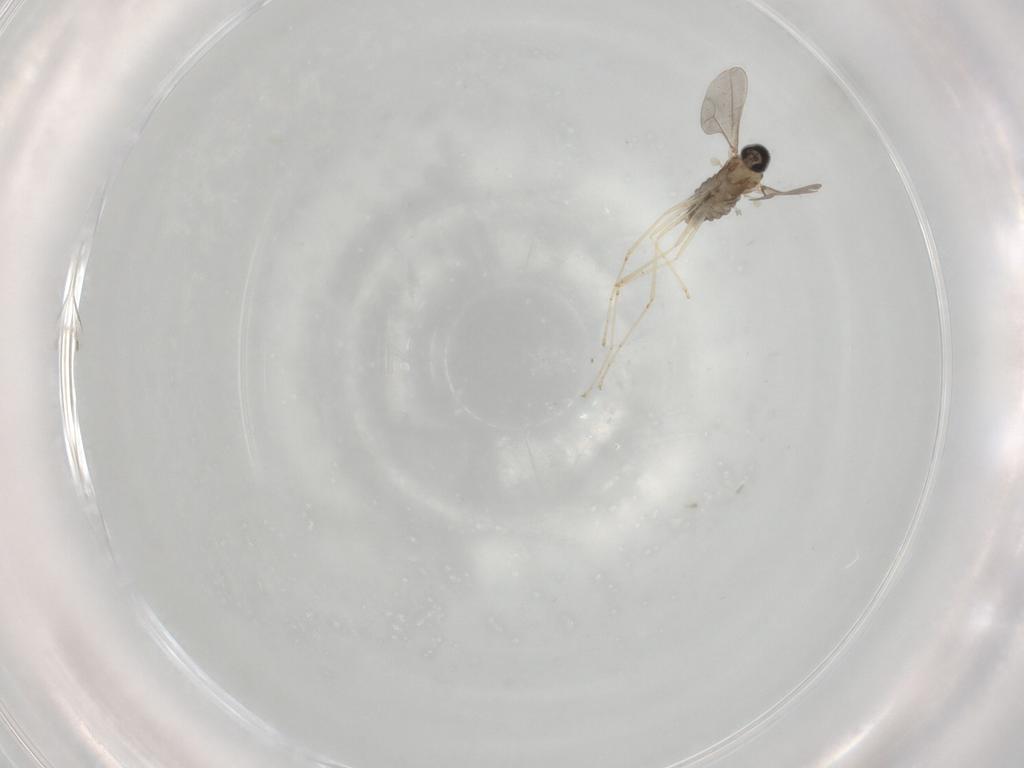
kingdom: Animalia
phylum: Arthropoda
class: Insecta
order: Diptera
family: Cecidomyiidae
